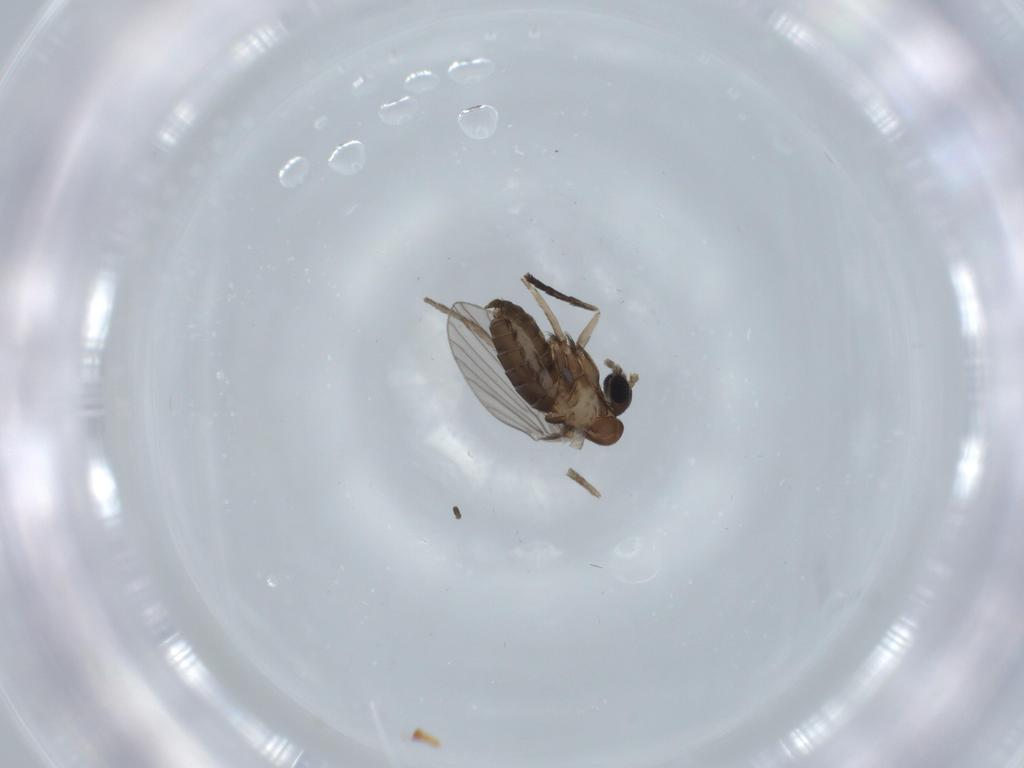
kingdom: Animalia
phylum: Arthropoda
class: Insecta
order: Diptera
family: Psychodidae
